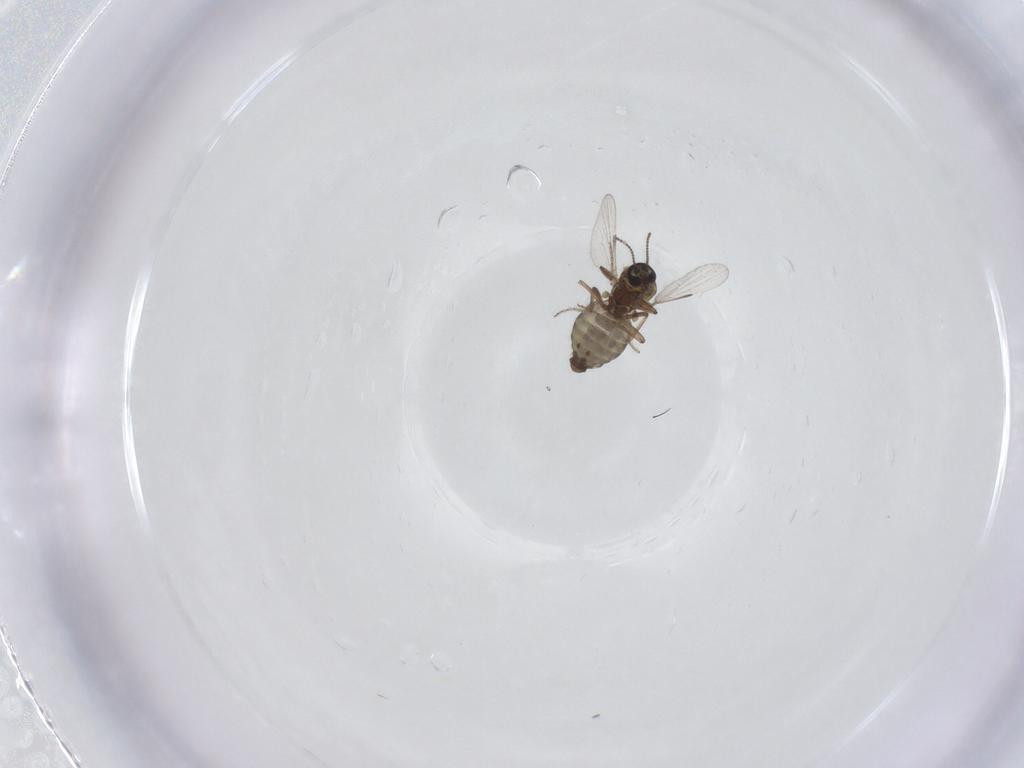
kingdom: Animalia
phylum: Arthropoda
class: Insecta
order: Diptera
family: Ceratopogonidae
